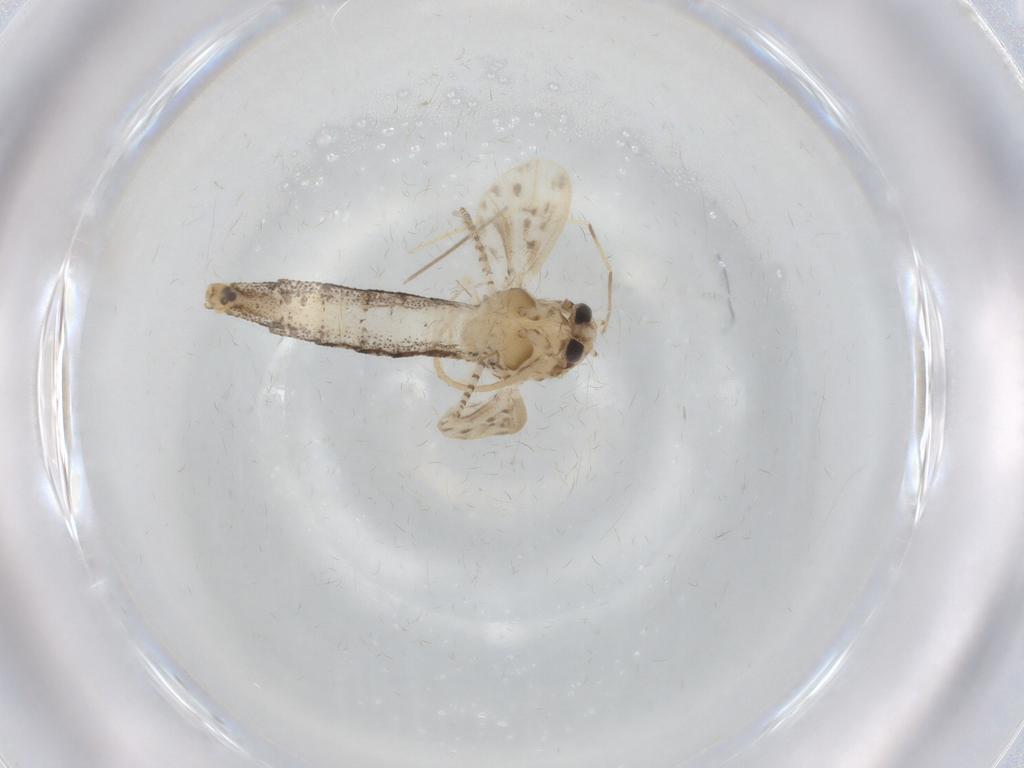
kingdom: Animalia
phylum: Arthropoda
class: Insecta
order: Diptera
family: Chaoboridae
